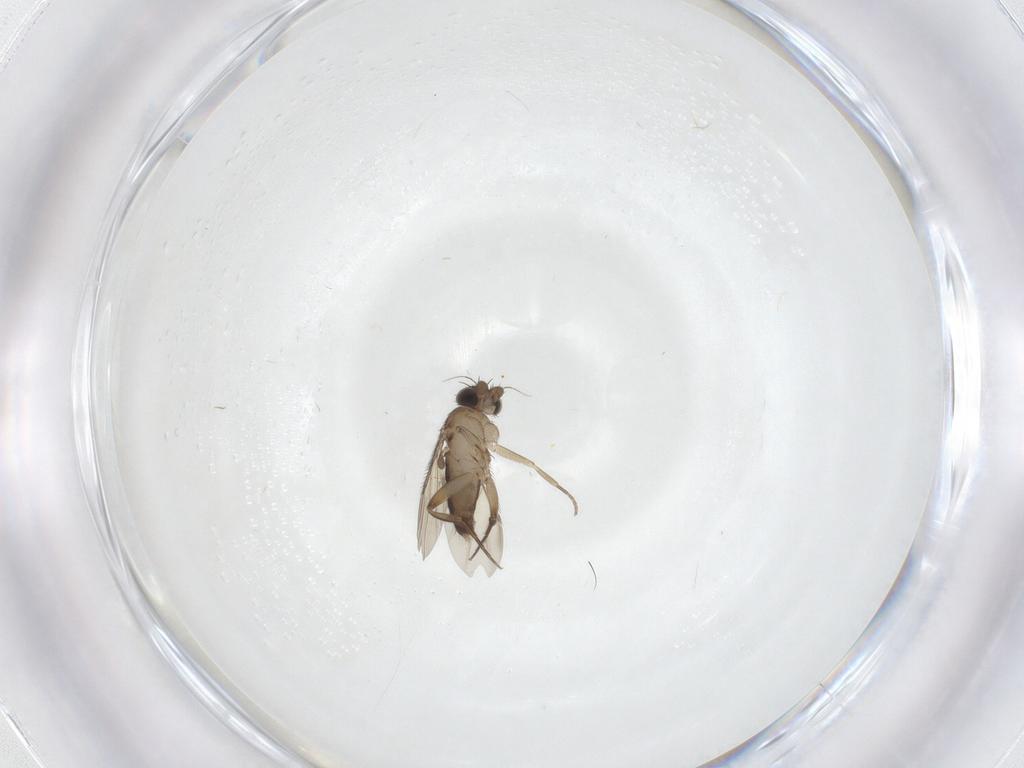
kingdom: Animalia
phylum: Arthropoda
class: Insecta
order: Diptera
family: Phoridae
